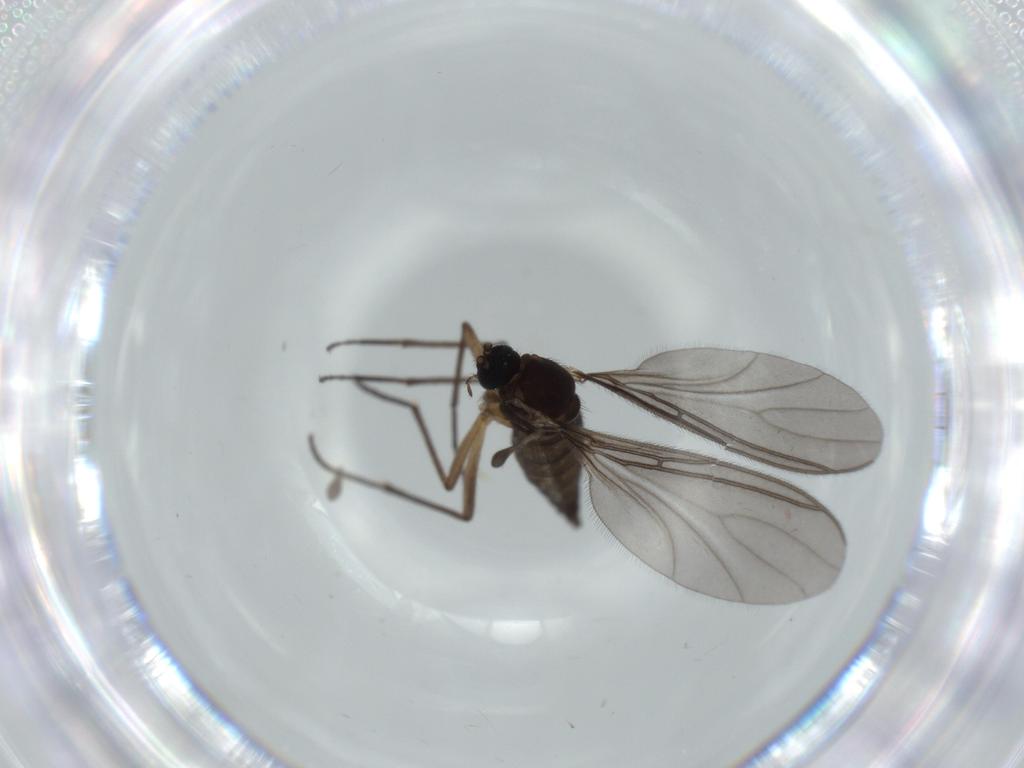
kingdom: Animalia
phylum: Arthropoda
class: Insecta
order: Diptera
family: Sciaridae
